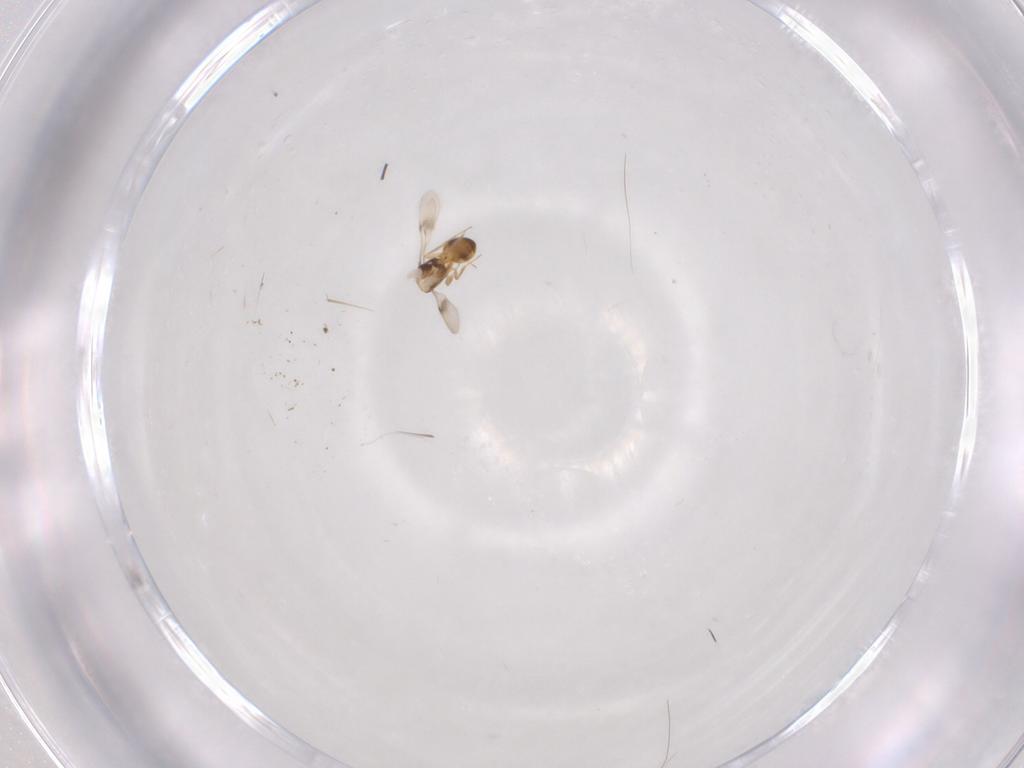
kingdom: Animalia
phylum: Arthropoda
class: Insecta
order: Hymenoptera
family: Scelionidae
